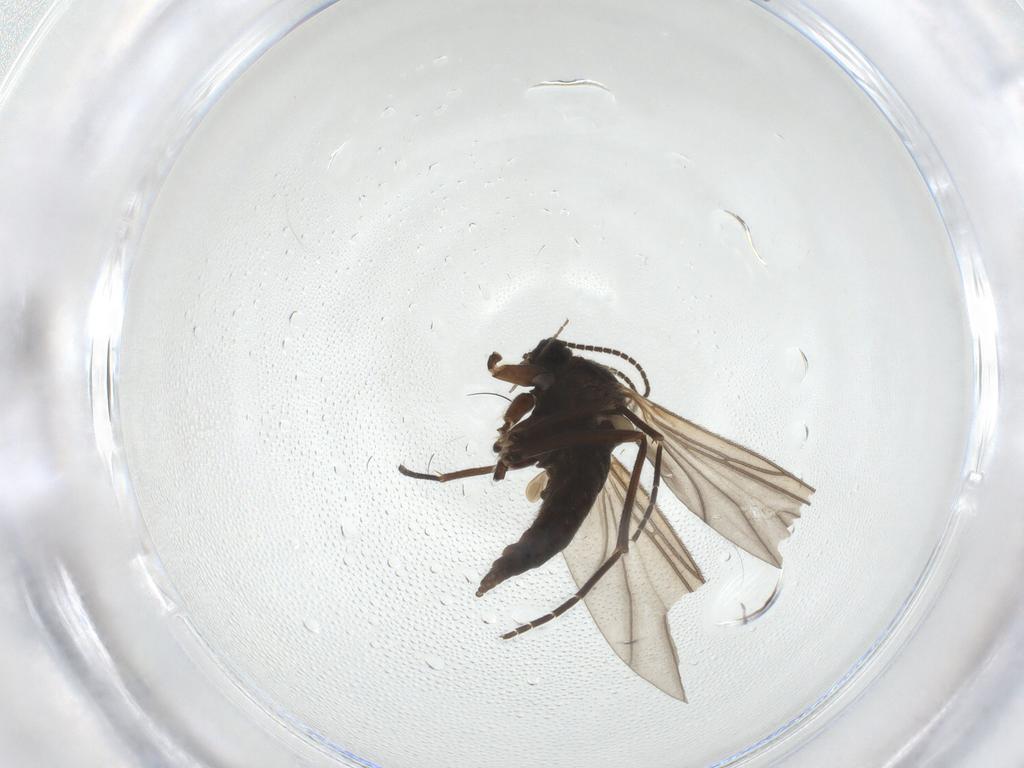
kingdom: Animalia
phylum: Arthropoda
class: Insecta
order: Diptera
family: Sciaridae
